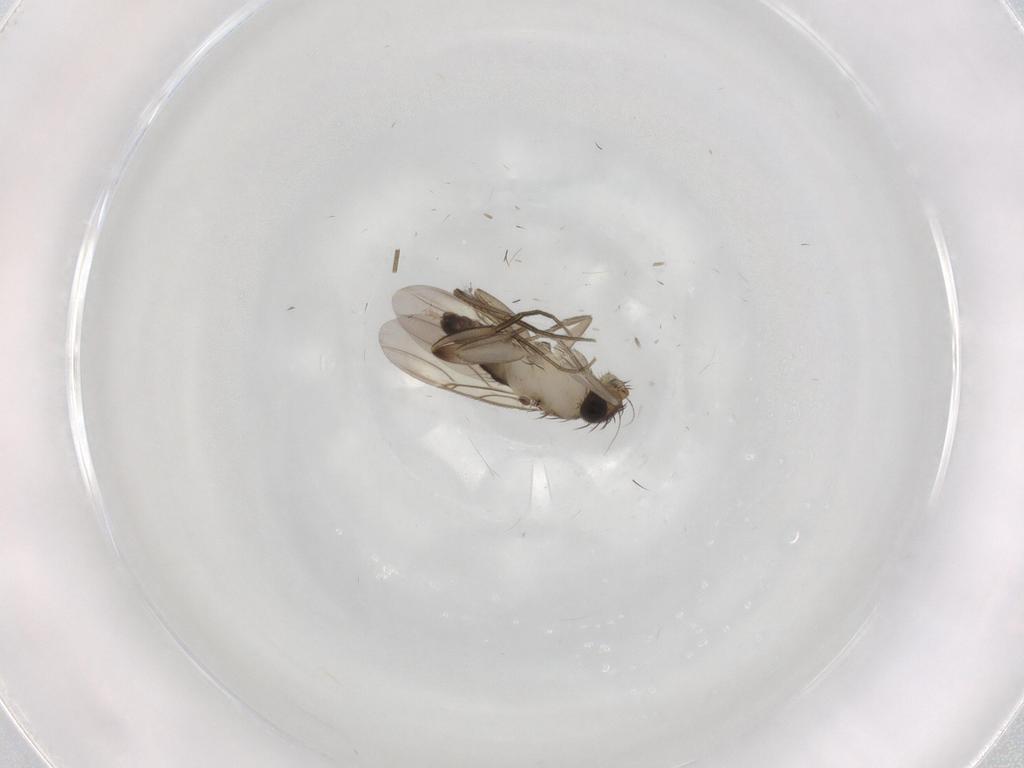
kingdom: Animalia
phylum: Arthropoda
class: Insecta
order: Diptera
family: Phoridae
